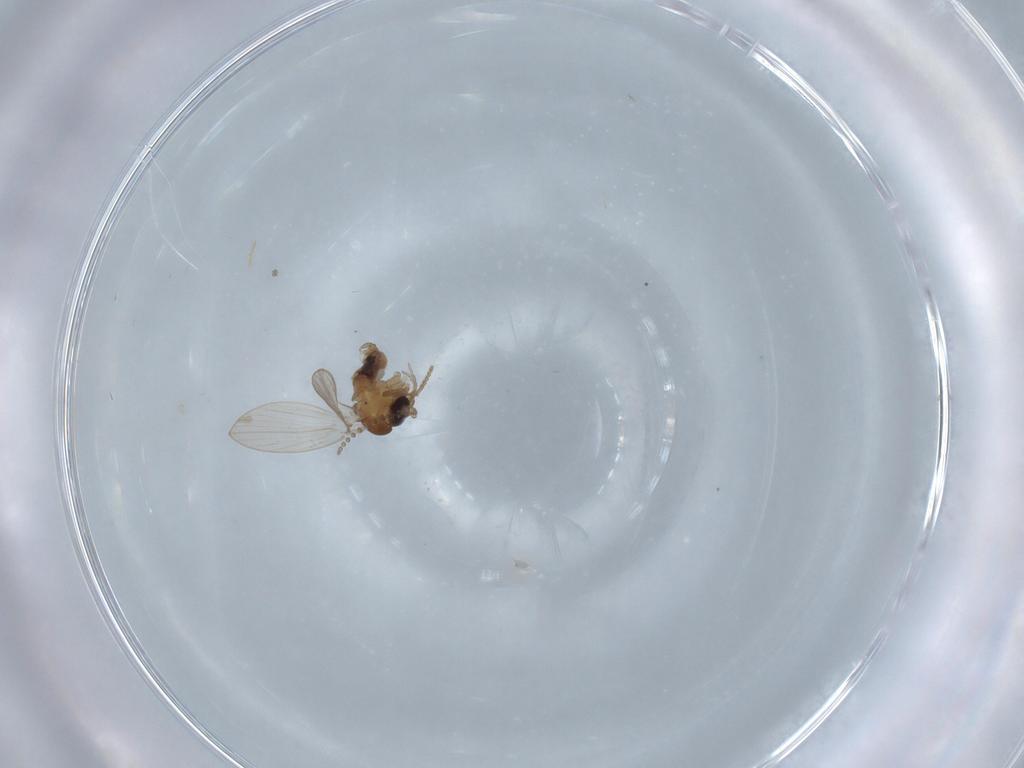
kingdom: Animalia
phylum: Arthropoda
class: Insecta
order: Diptera
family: Psychodidae
